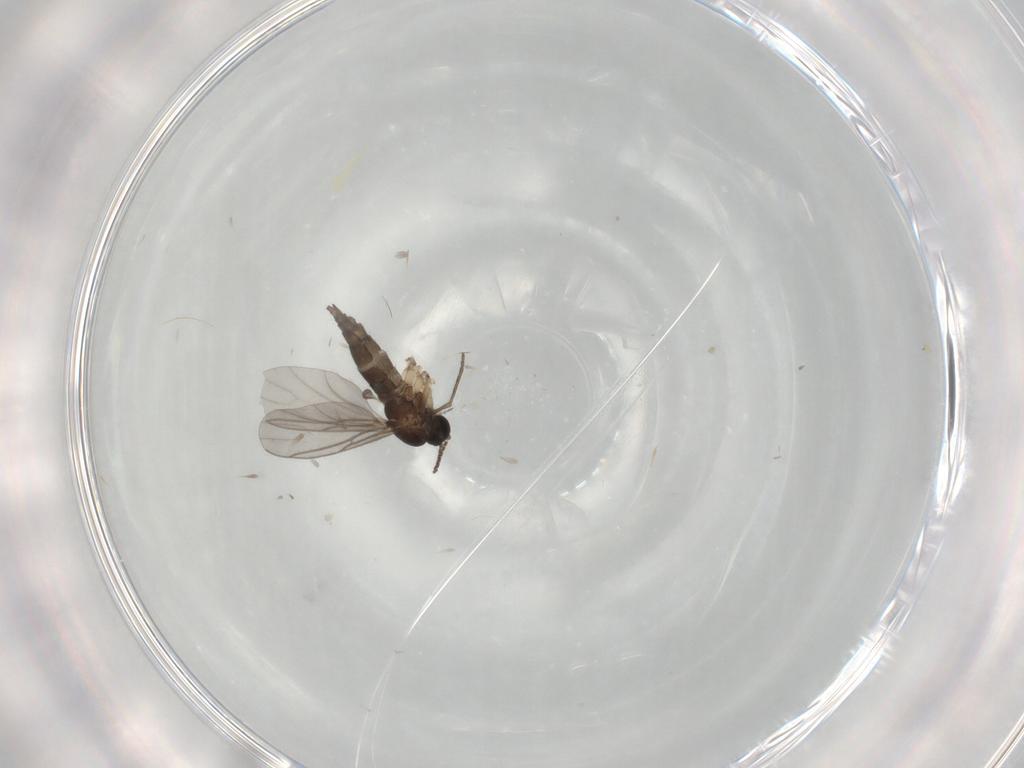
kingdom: Animalia
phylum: Arthropoda
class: Insecta
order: Diptera
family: Sciaridae
